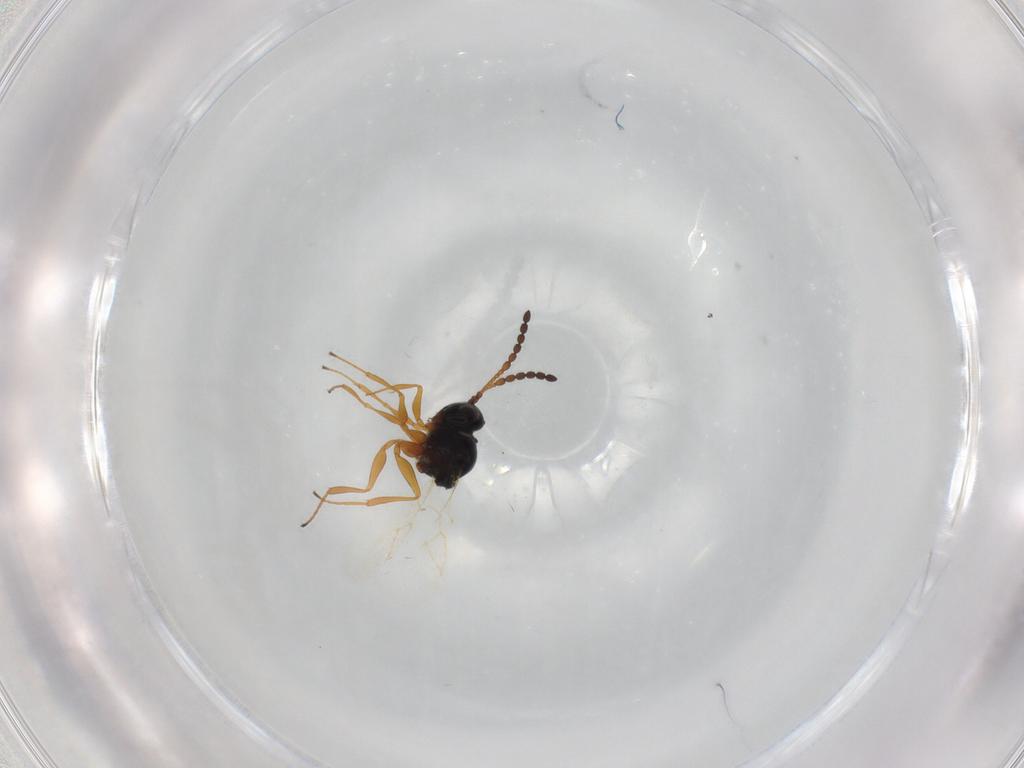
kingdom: Animalia
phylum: Arthropoda
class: Insecta
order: Hymenoptera
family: Figitidae
